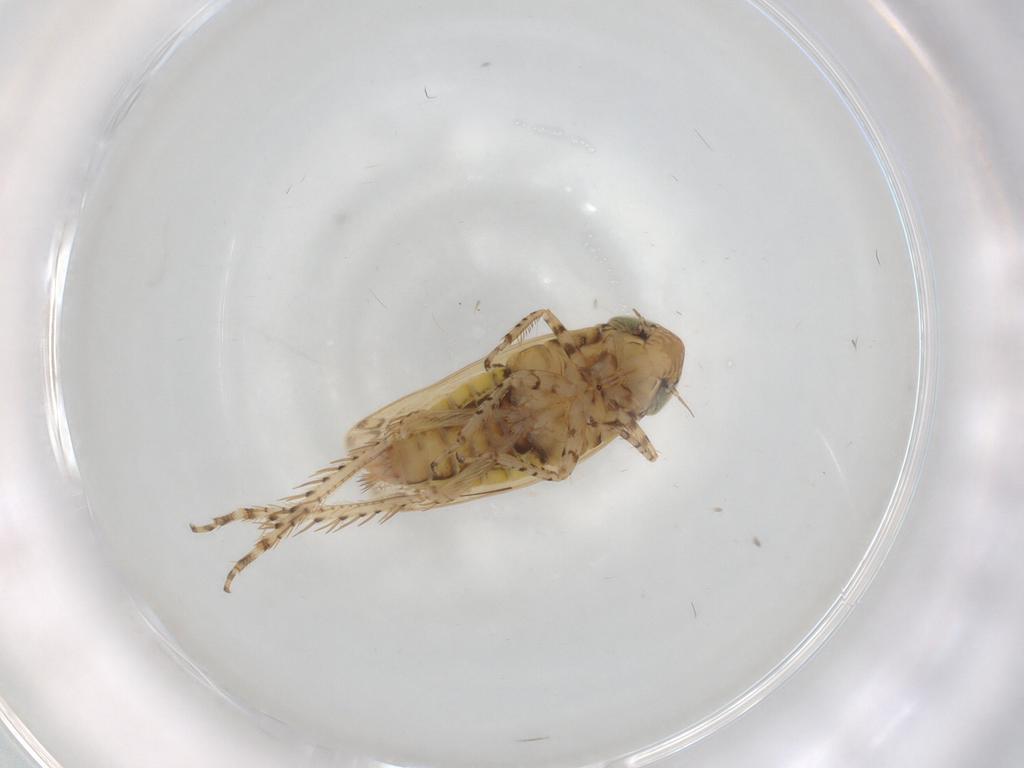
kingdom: Animalia
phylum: Arthropoda
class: Insecta
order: Hemiptera
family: Cicadellidae
